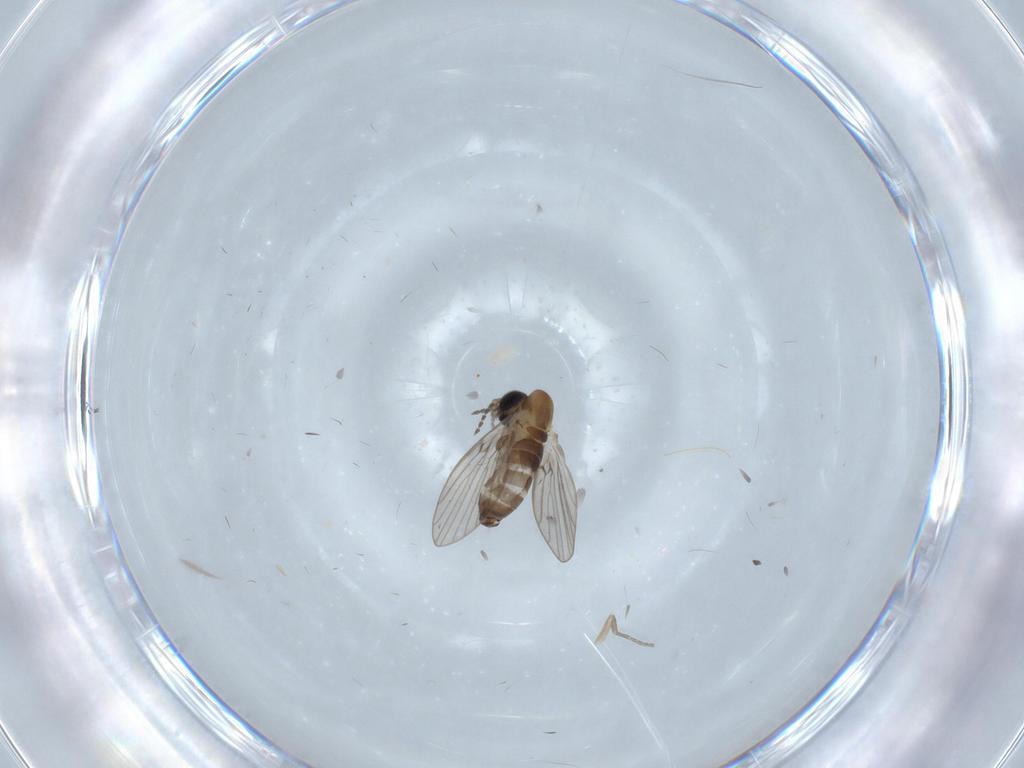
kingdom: Animalia
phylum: Arthropoda
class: Insecta
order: Diptera
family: Psychodidae
